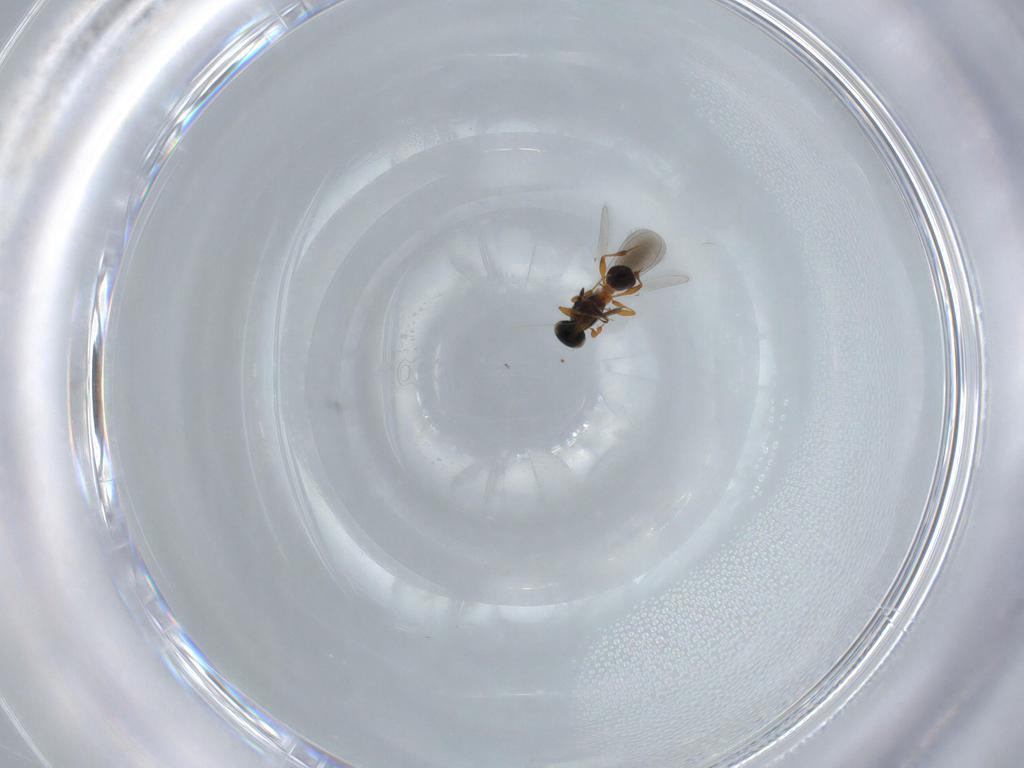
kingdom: Animalia
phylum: Arthropoda
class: Insecta
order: Hymenoptera
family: Platygastridae
